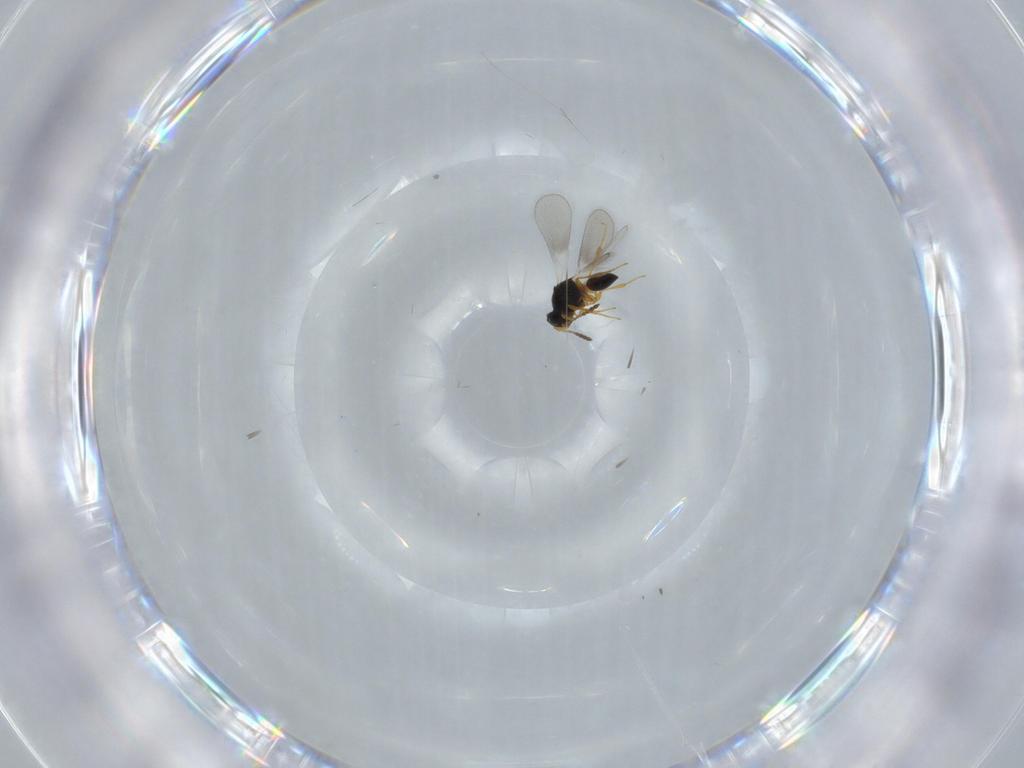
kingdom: Animalia
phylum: Arthropoda
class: Insecta
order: Hymenoptera
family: Platygastridae
